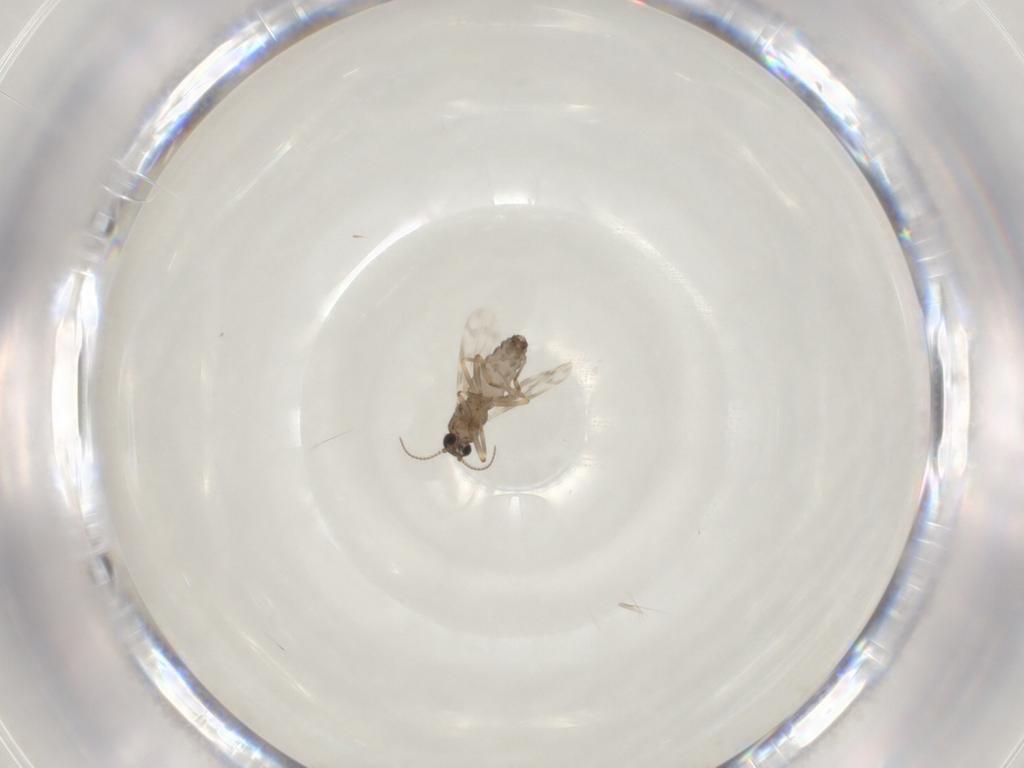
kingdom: Animalia
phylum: Arthropoda
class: Insecta
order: Diptera
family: Ceratopogonidae
